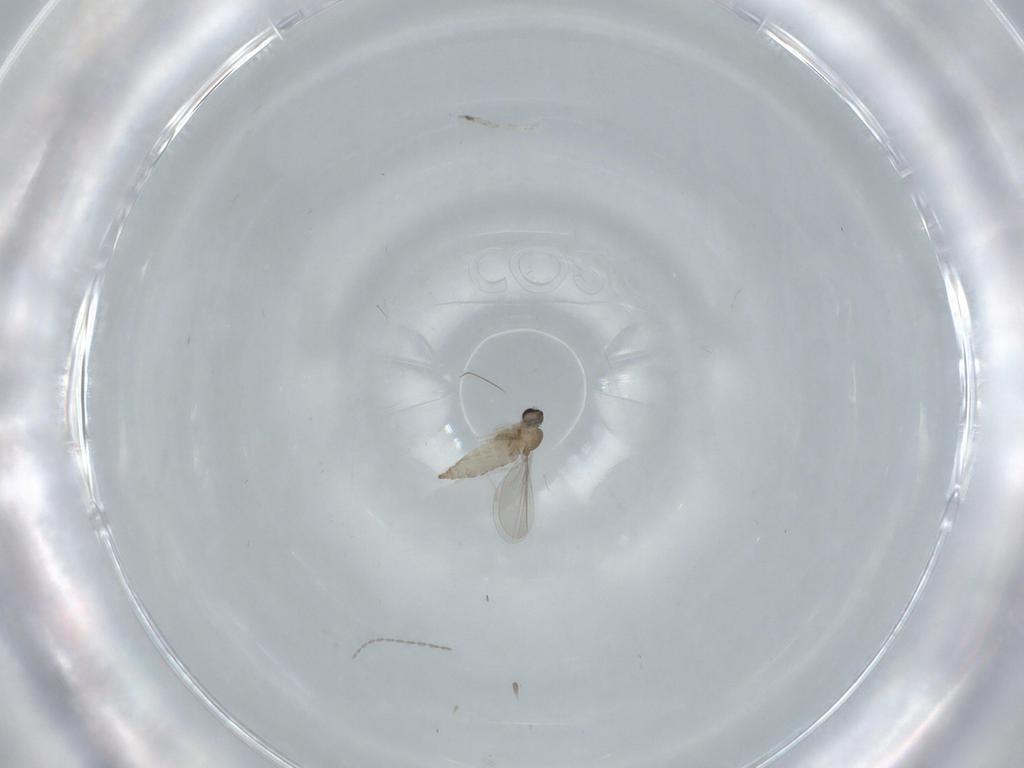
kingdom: Animalia
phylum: Arthropoda
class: Insecta
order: Diptera
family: Cecidomyiidae
